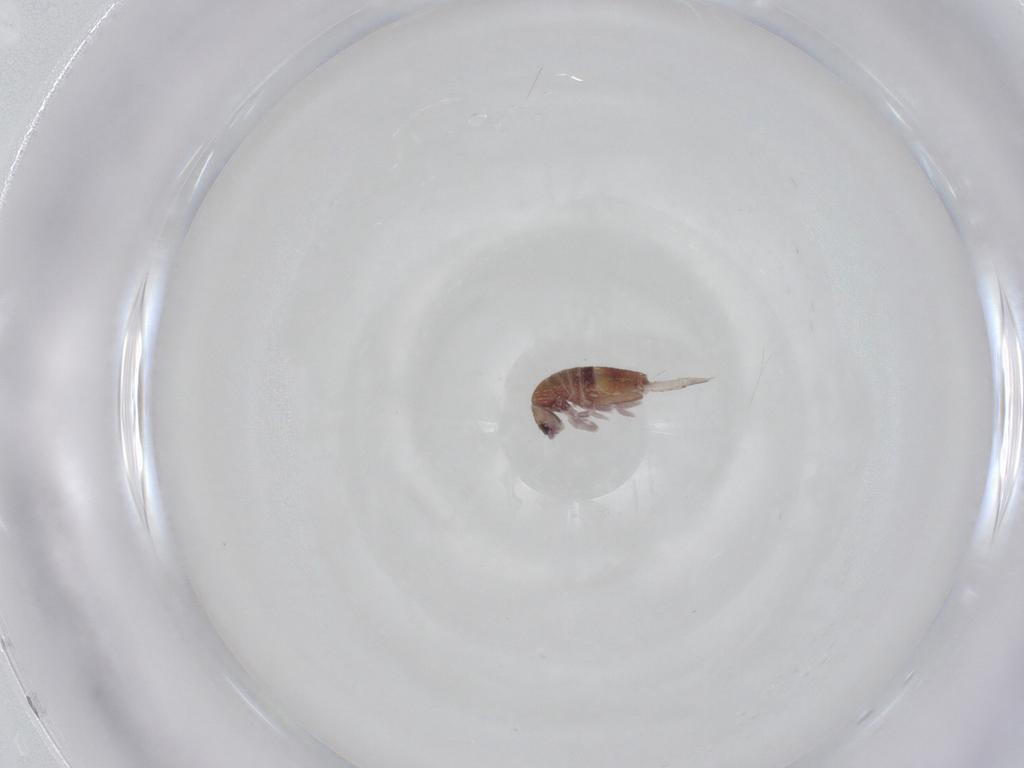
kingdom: Animalia
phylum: Arthropoda
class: Collembola
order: Entomobryomorpha
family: Entomobryidae
